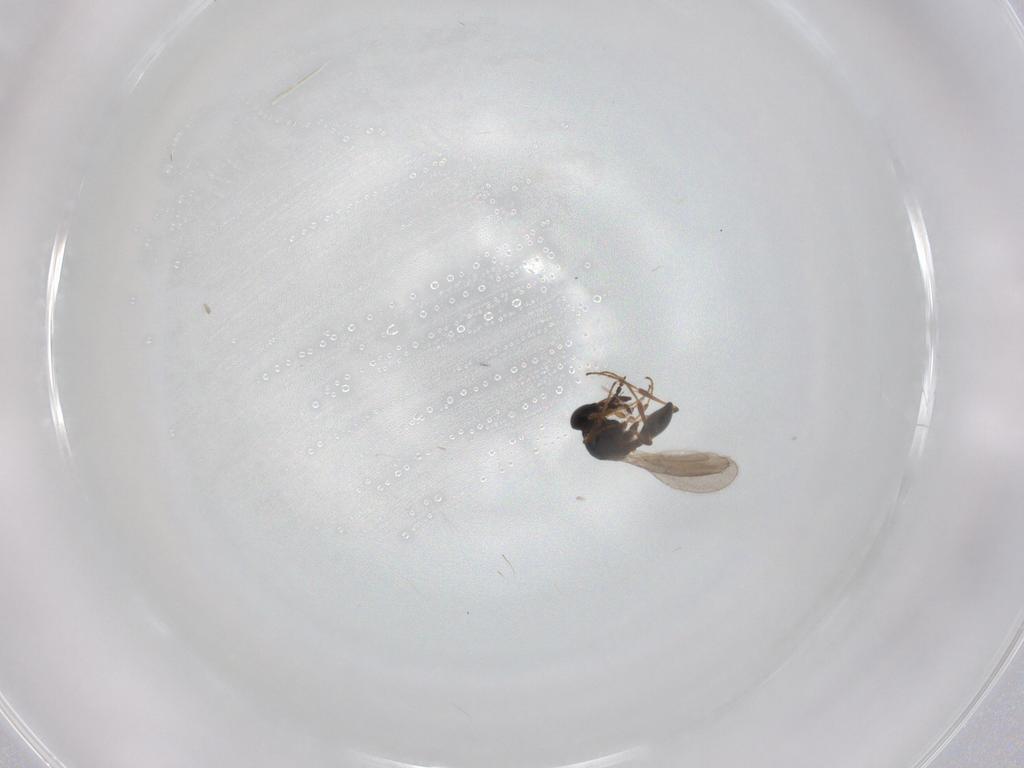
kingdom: Animalia
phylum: Arthropoda
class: Insecta
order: Hymenoptera
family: Platygastridae
